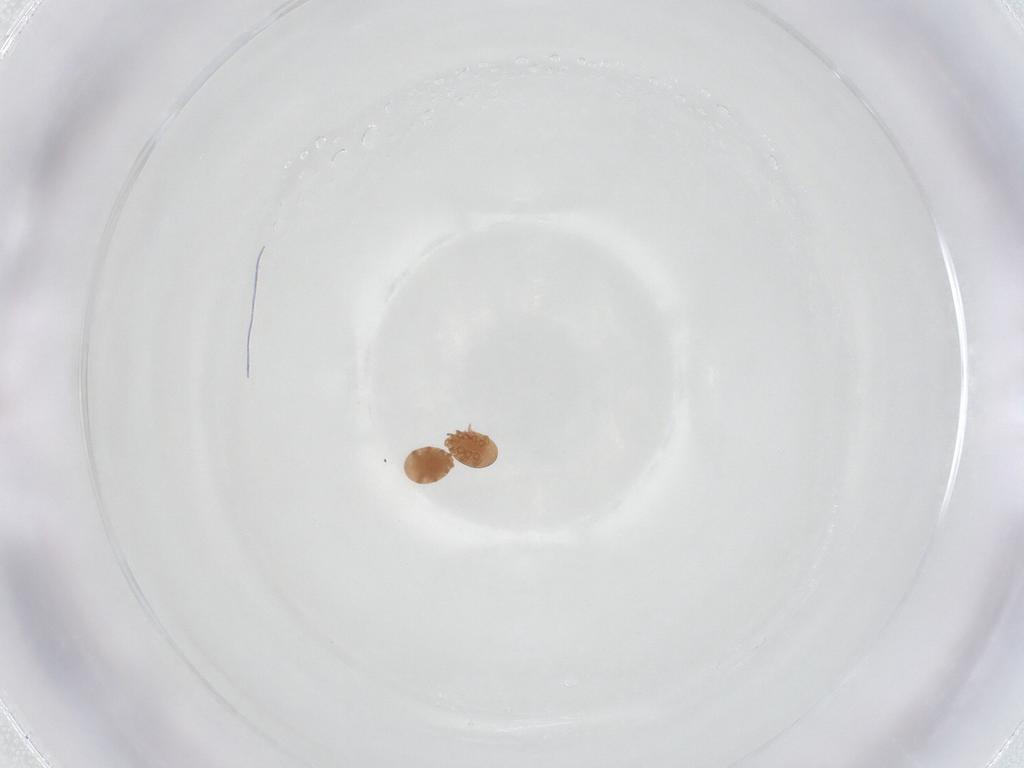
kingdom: Animalia
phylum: Arthropoda
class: Arachnida
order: Mesostigmata
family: Trematuridae
